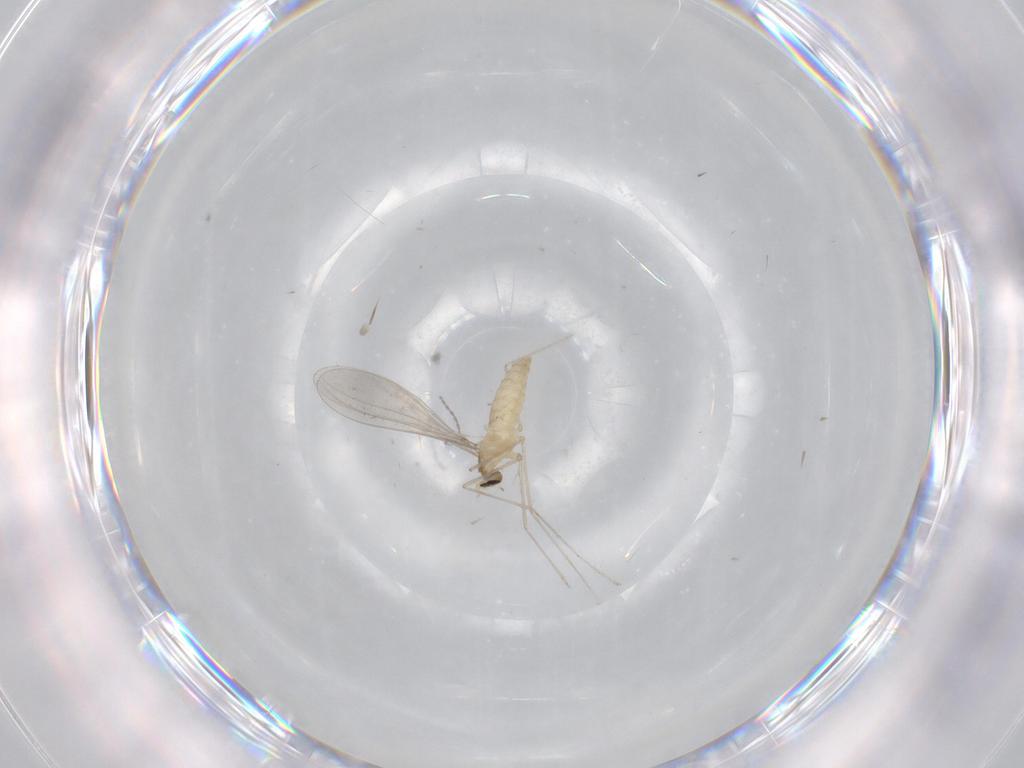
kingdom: Animalia
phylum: Arthropoda
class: Insecta
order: Diptera
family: Cecidomyiidae
